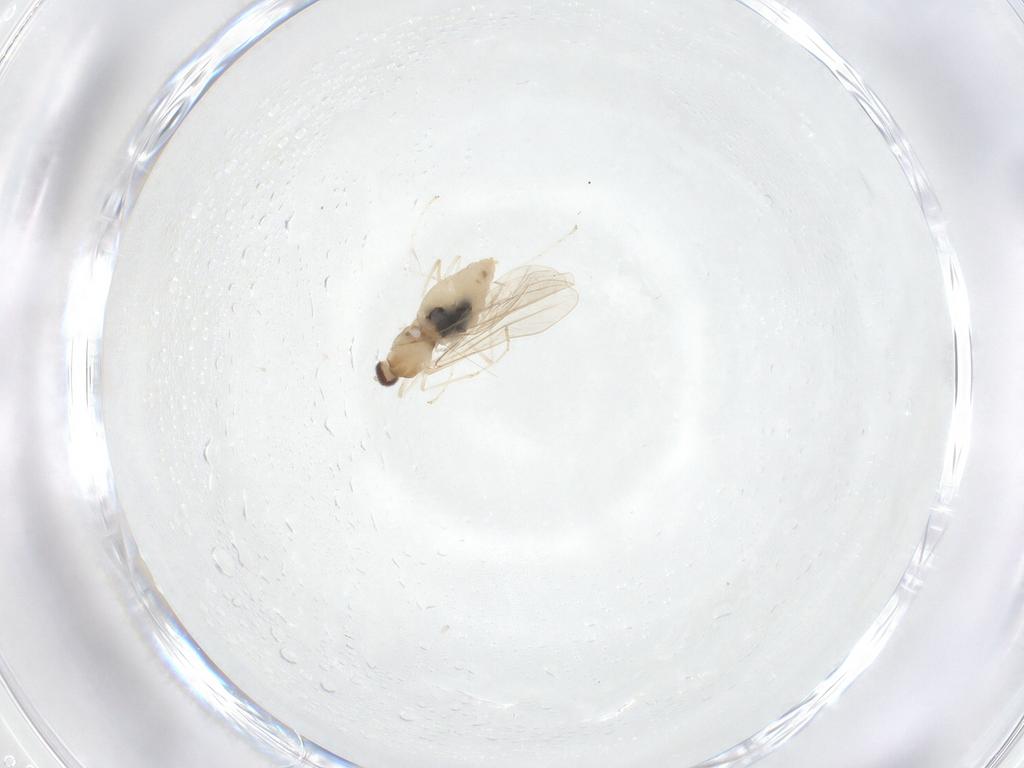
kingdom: Animalia
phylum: Arthropoda
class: Insecta
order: Diptera
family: Cecidomyiidae
